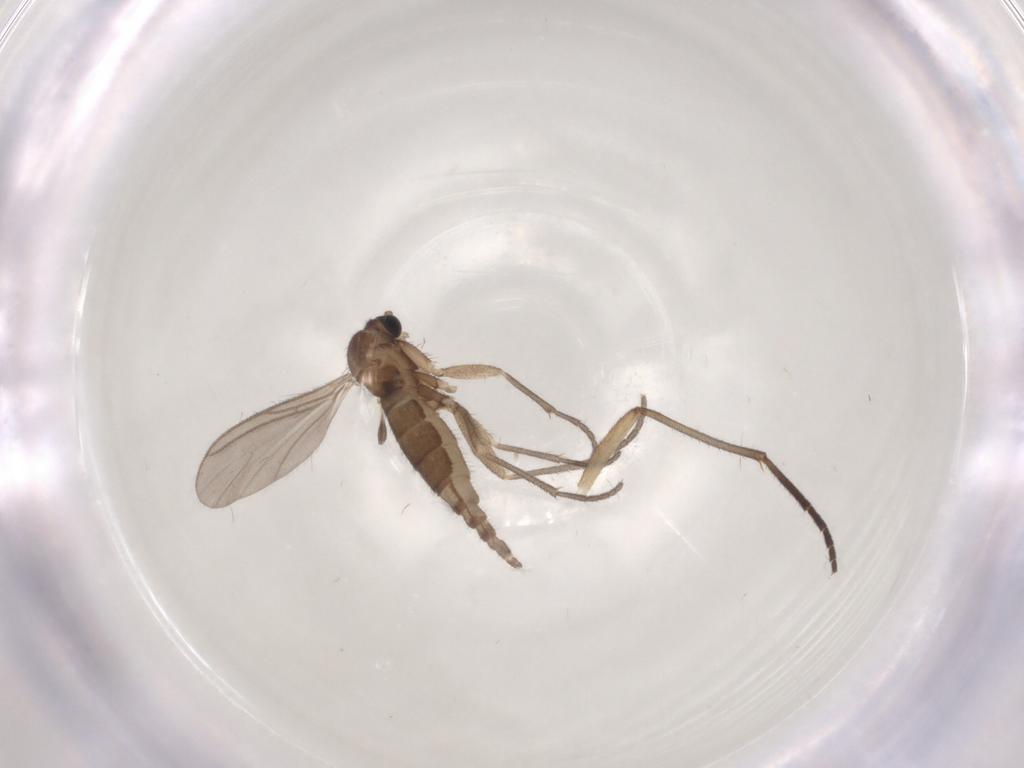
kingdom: Animalia
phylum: Arthropoda
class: Insecta
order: Diptera
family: Sciaridae
